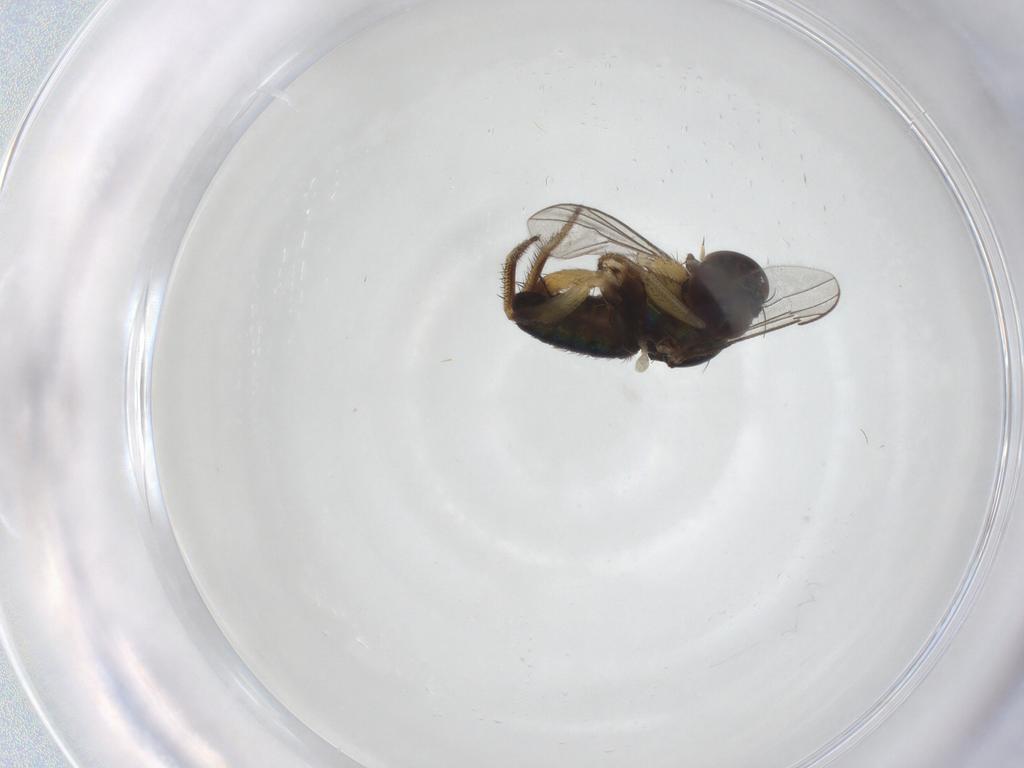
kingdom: Animalia
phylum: Arthropoda
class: Insecta
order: Diptera
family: Dolichopodidae
